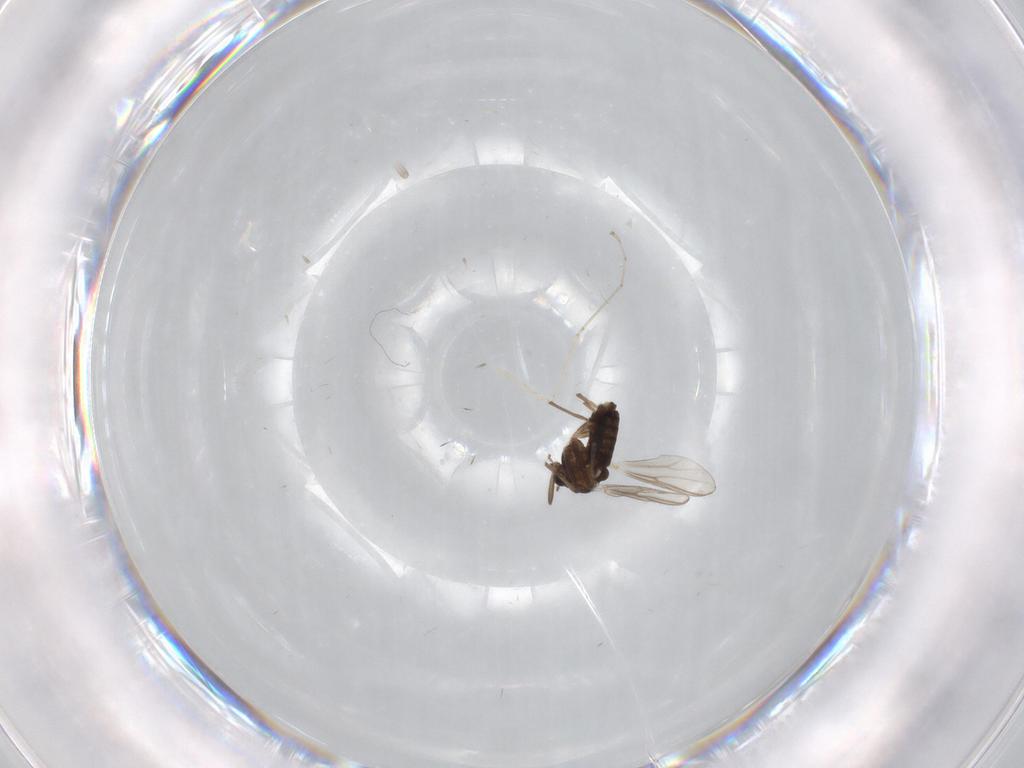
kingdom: Animalia
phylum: Arthropoda
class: Insecta
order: Diptera
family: Chironomidae
